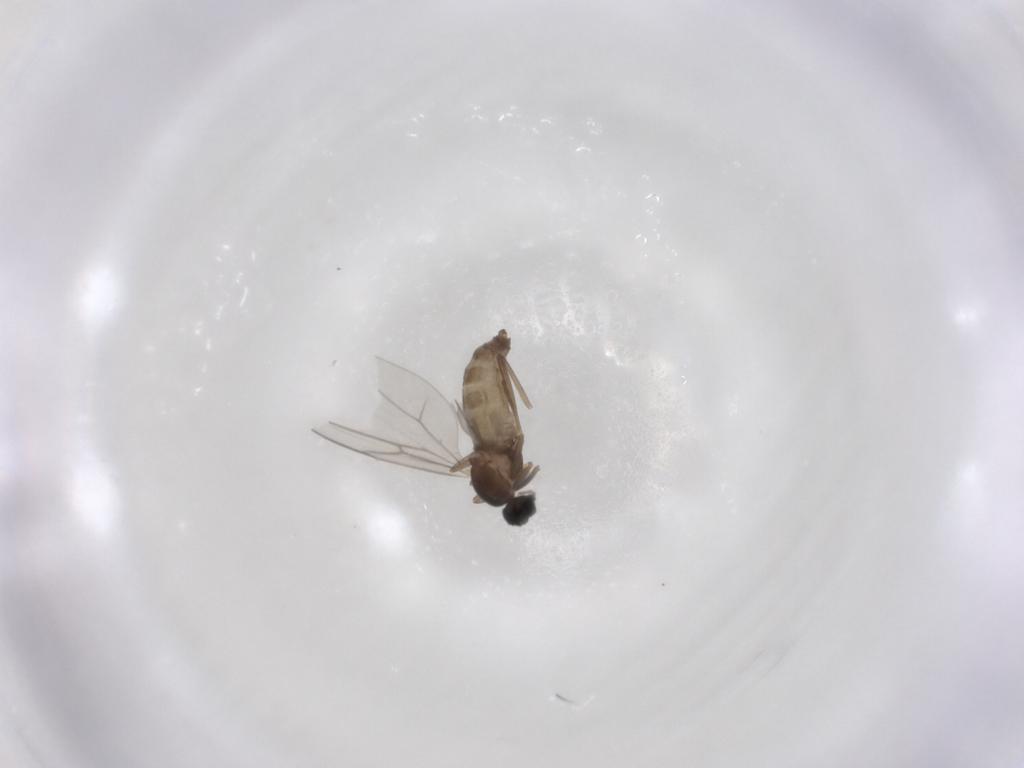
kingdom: Animalia
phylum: Arthropoda
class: Insecta
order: Diptera
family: Cecidomyiidae
